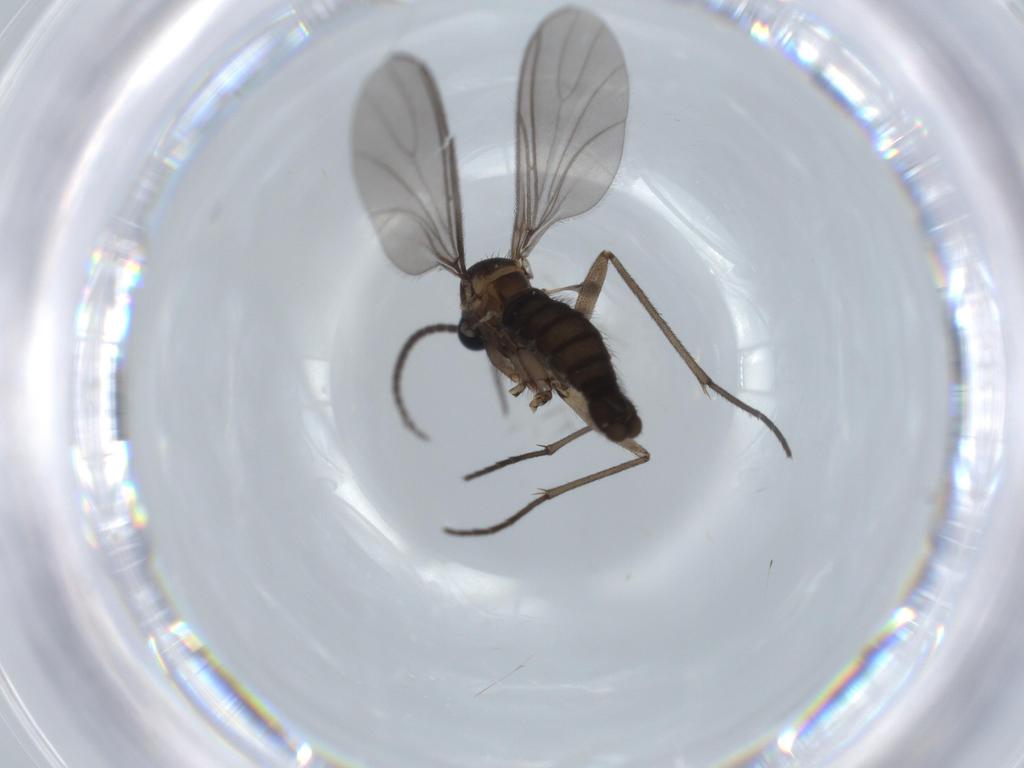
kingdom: Animalia
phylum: Arthropoda
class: Insecta
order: Diptera
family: Sciaridae
